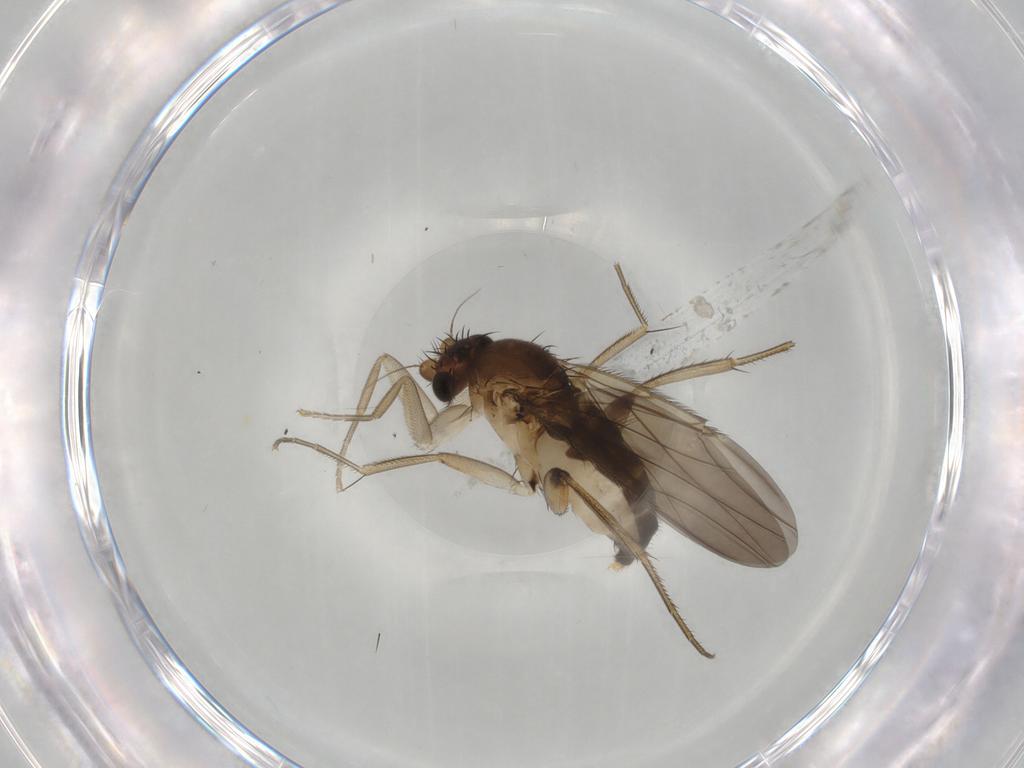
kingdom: Animalia
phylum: Arthropoda
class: Insecta
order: Diptera
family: Phoridae
